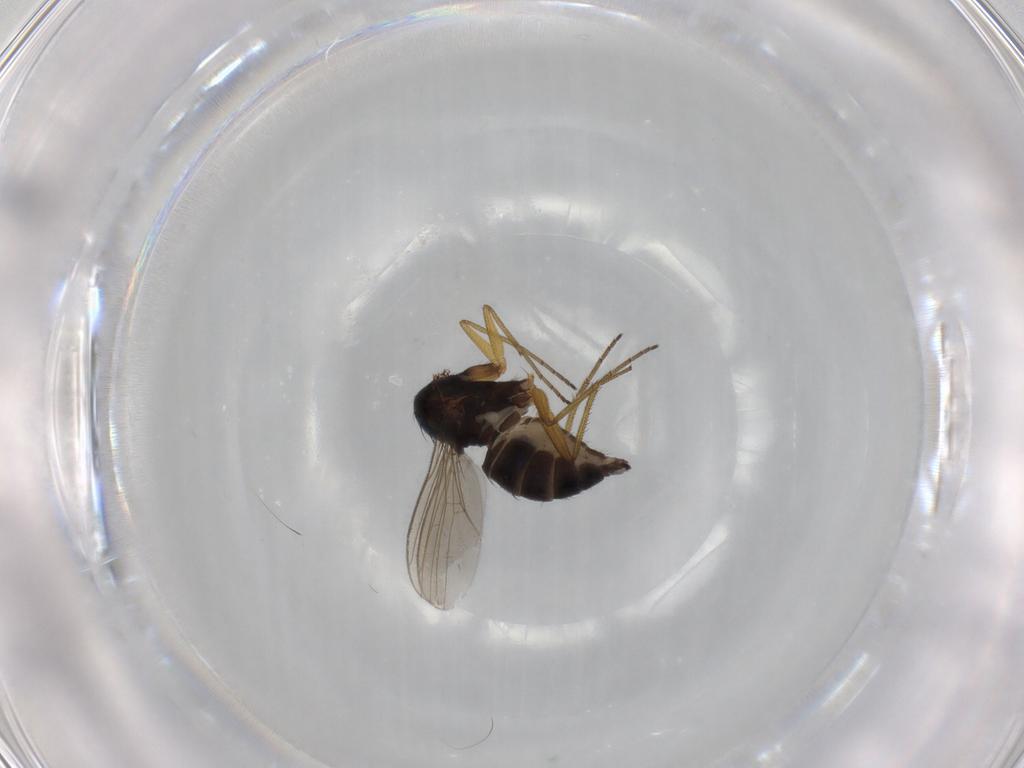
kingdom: Animalia
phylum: Arthropoda
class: Insecta
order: Diptera
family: Dolichopodidae
